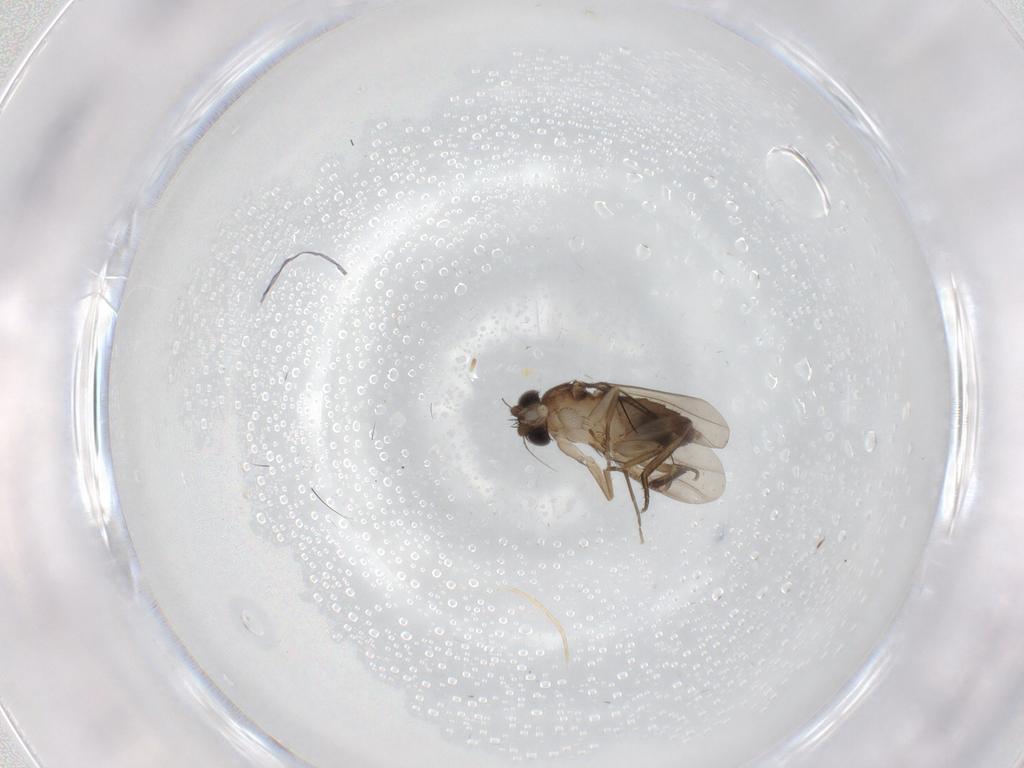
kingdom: Animalia
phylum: Arthropoda
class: Insecta
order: Diptera
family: Phoridae
